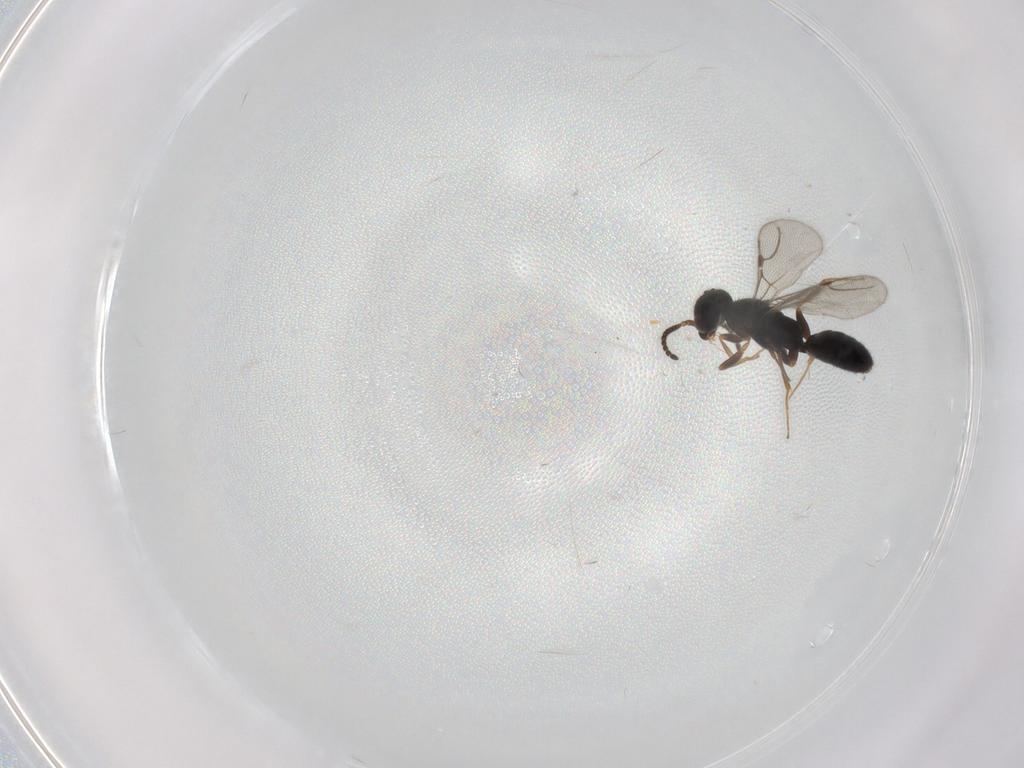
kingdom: Animalia
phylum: Arthropoda
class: Insecta
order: Hymenoptera
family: Bethylidae
